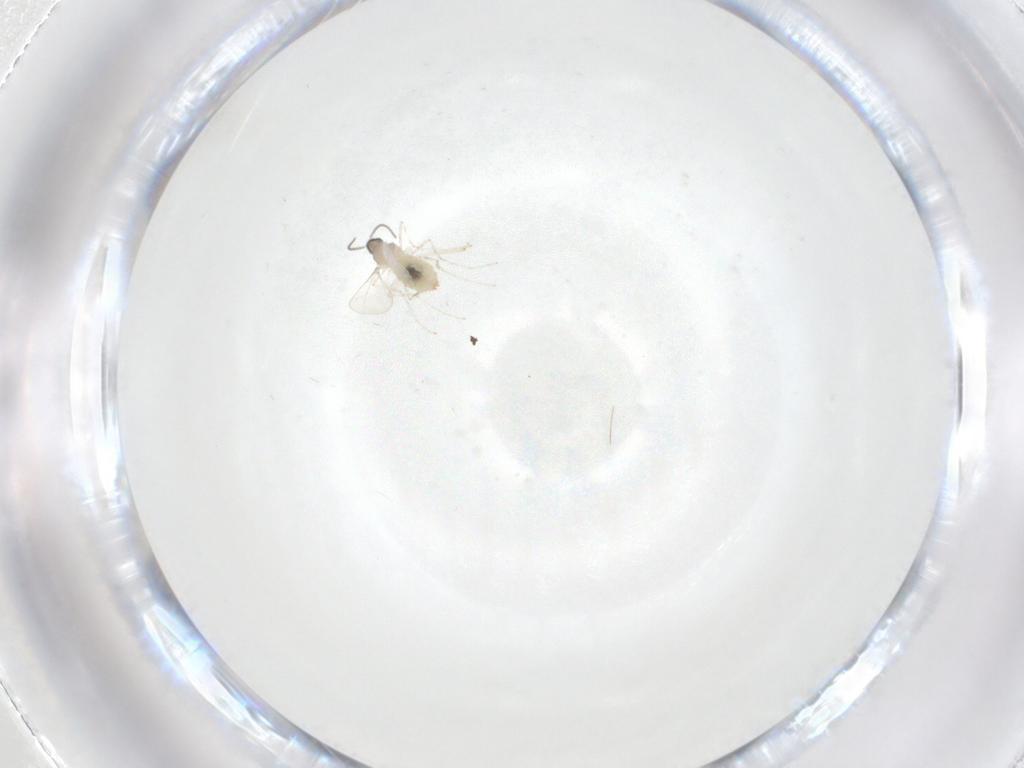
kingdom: Animalia
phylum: Arthropoda
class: Insecta
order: Diptera
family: Cecidomyiidae
